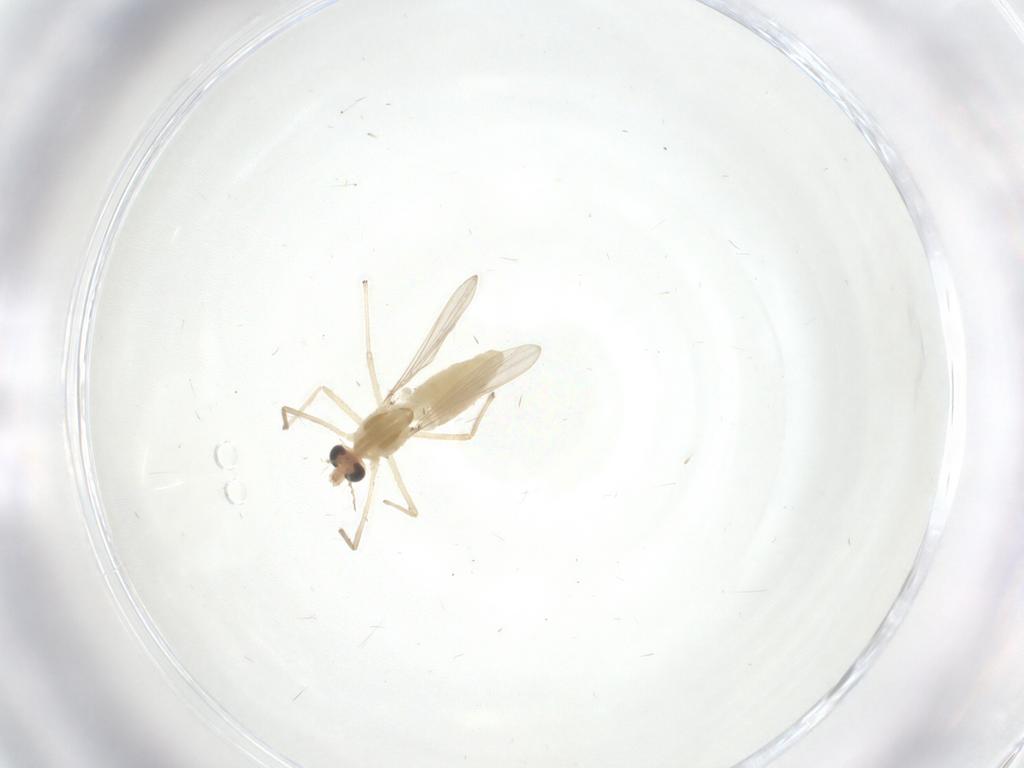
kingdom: Animalia
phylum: Arthropoda
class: Insecta
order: Diptera
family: Chironomidae
